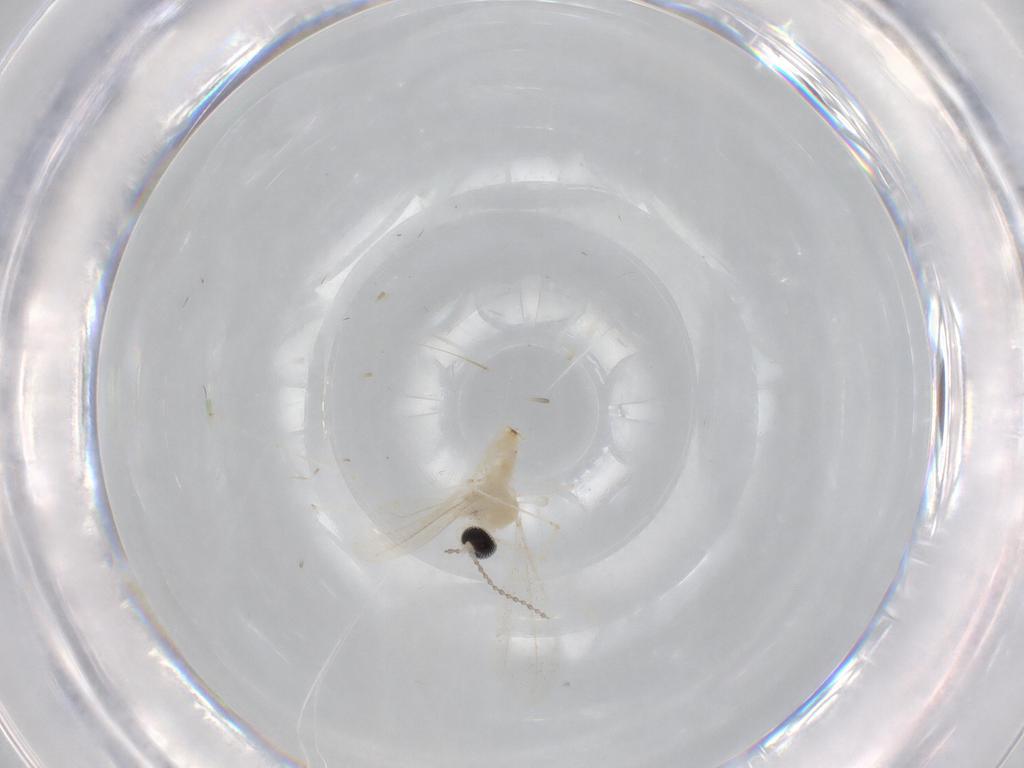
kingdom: Animalia
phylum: Arthropoda
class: Insecta
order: Diptera
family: Cecidomyiidae
